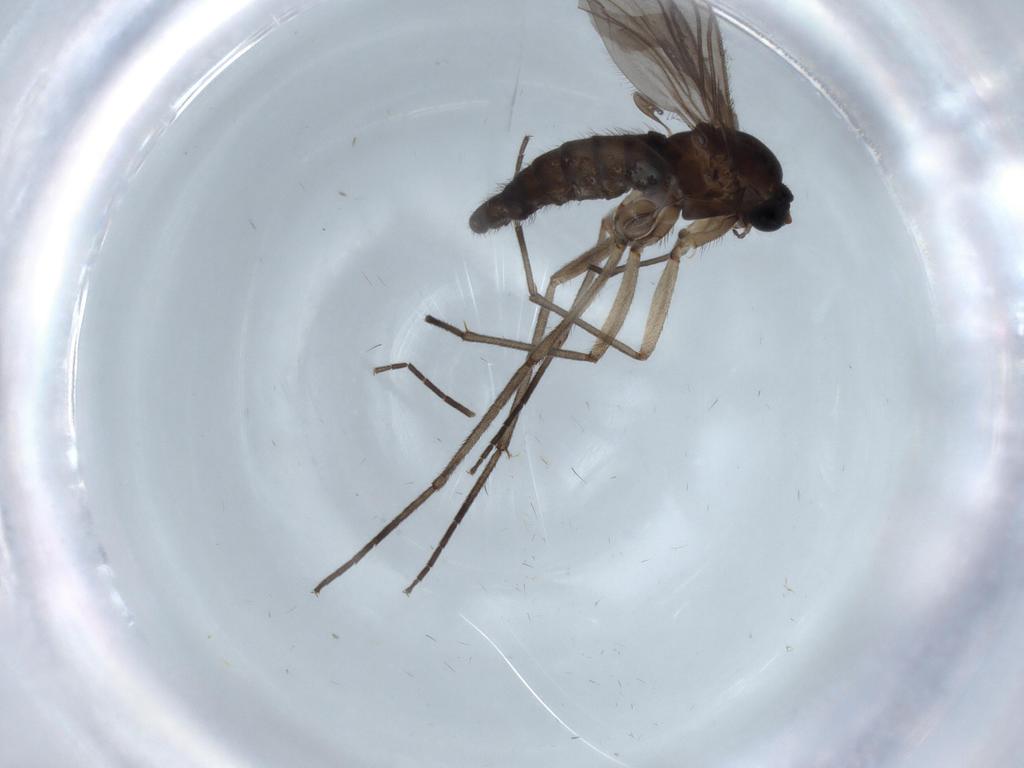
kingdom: Animalia
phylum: Arthropoda
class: Insecta
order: Diptera
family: Sciaridae
